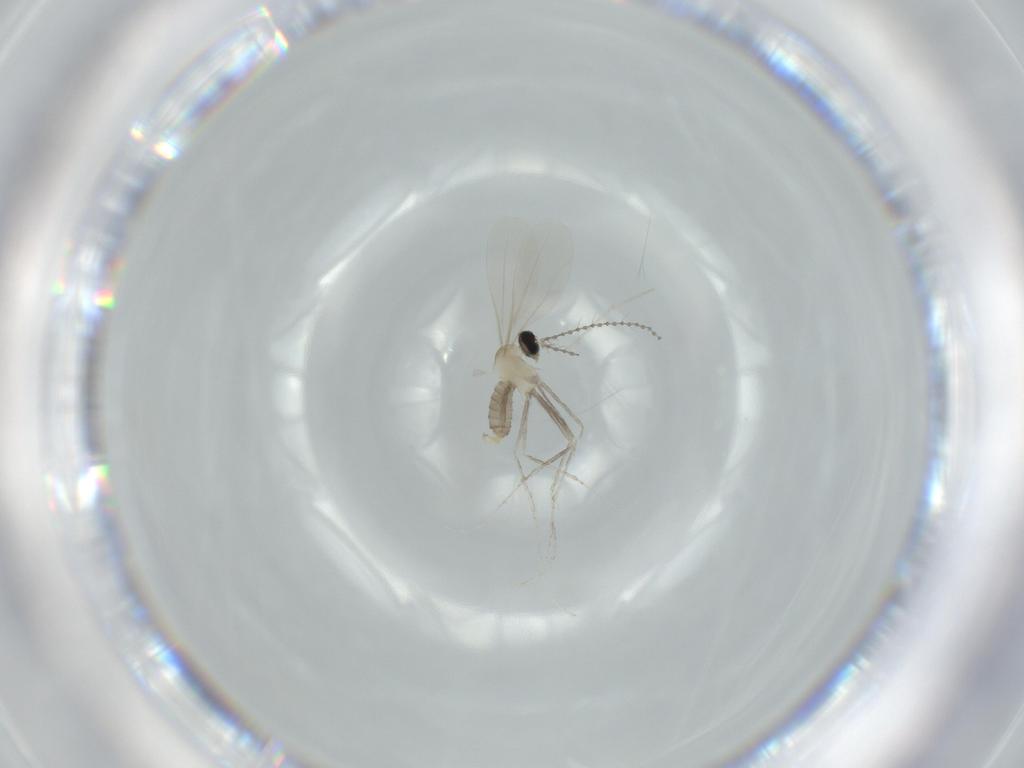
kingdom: Animalia
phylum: Arthropoda
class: Insecta
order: Diptera
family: Cecidomyiidae
